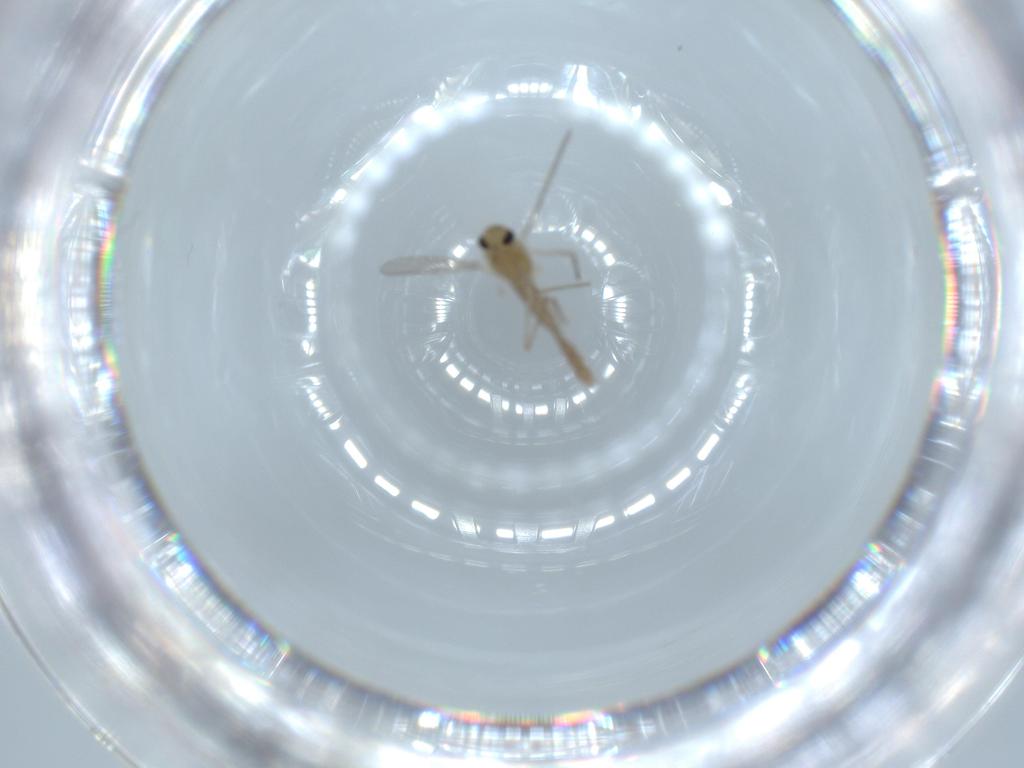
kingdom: Animalia
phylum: Arthropoda
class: Insecta
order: Diptera
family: Chironomidae
